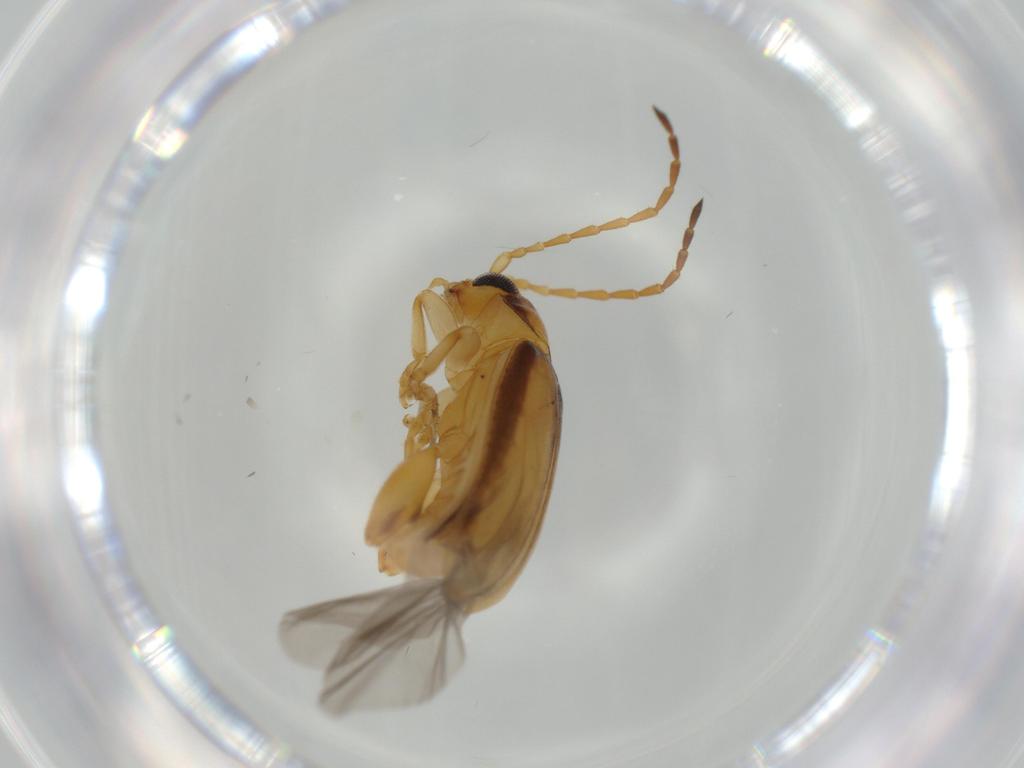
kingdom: Animalia
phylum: Arthropoda
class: Insecta
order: Coleoptera
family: Chrysomelidae
